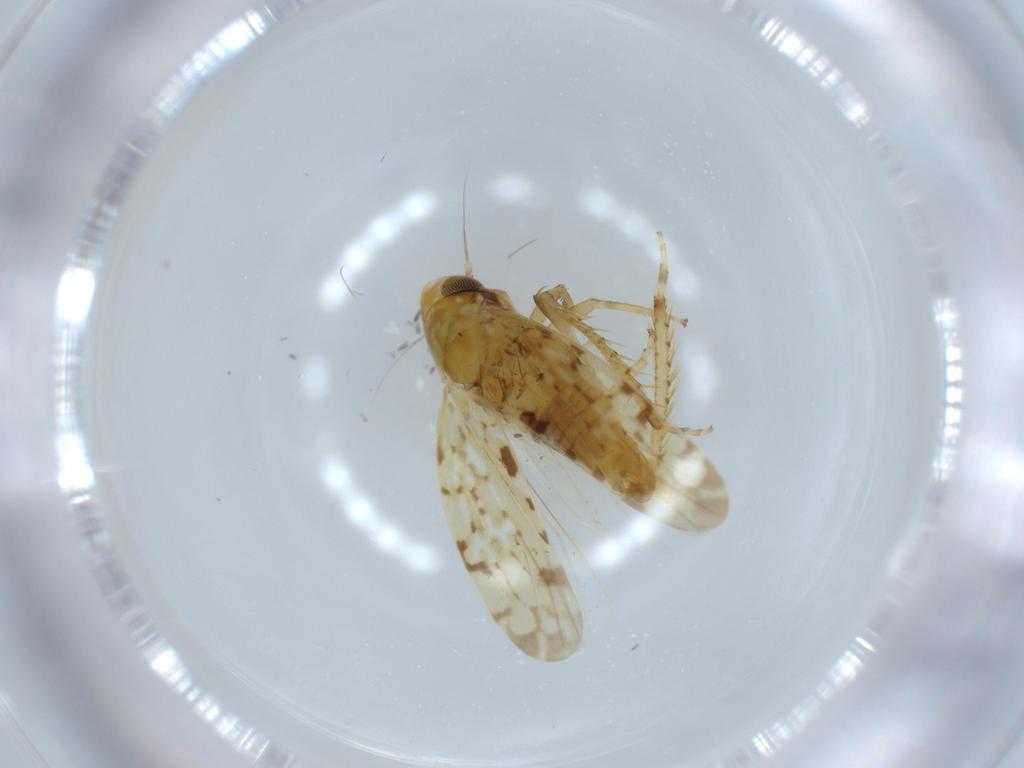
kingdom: Animalia
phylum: Arthropoda
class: Insecta
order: Hemiptera
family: Cicadellidae
